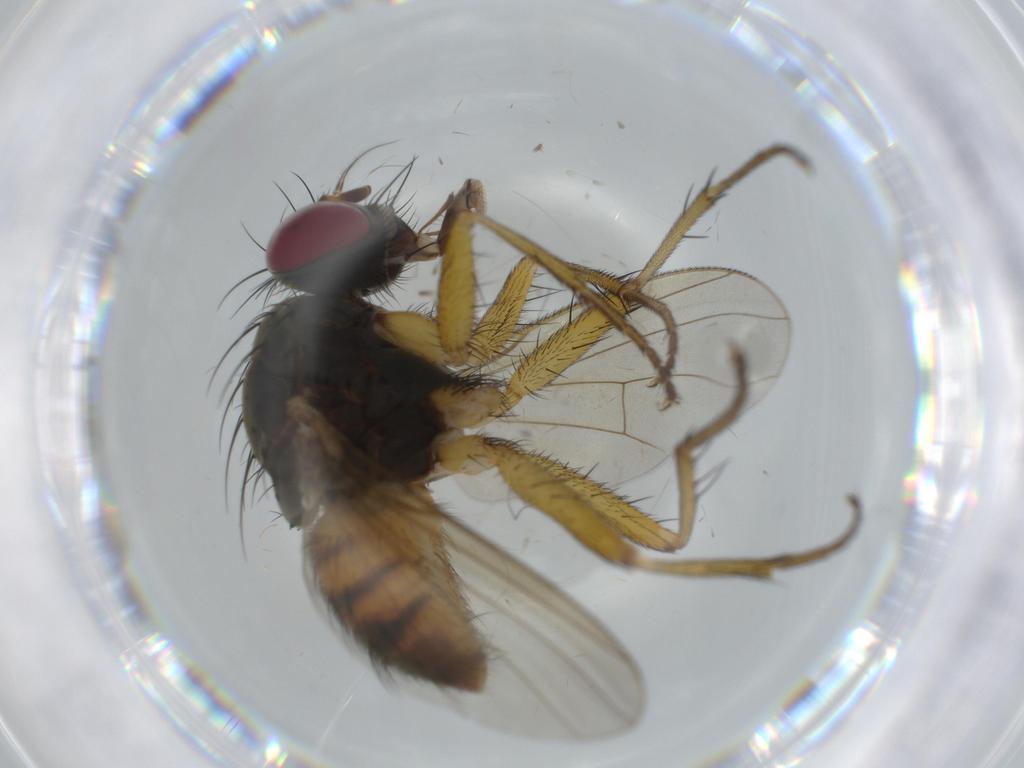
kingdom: Animalia
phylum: Arthropoda
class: Insecta
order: Diptera
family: Muscidae
